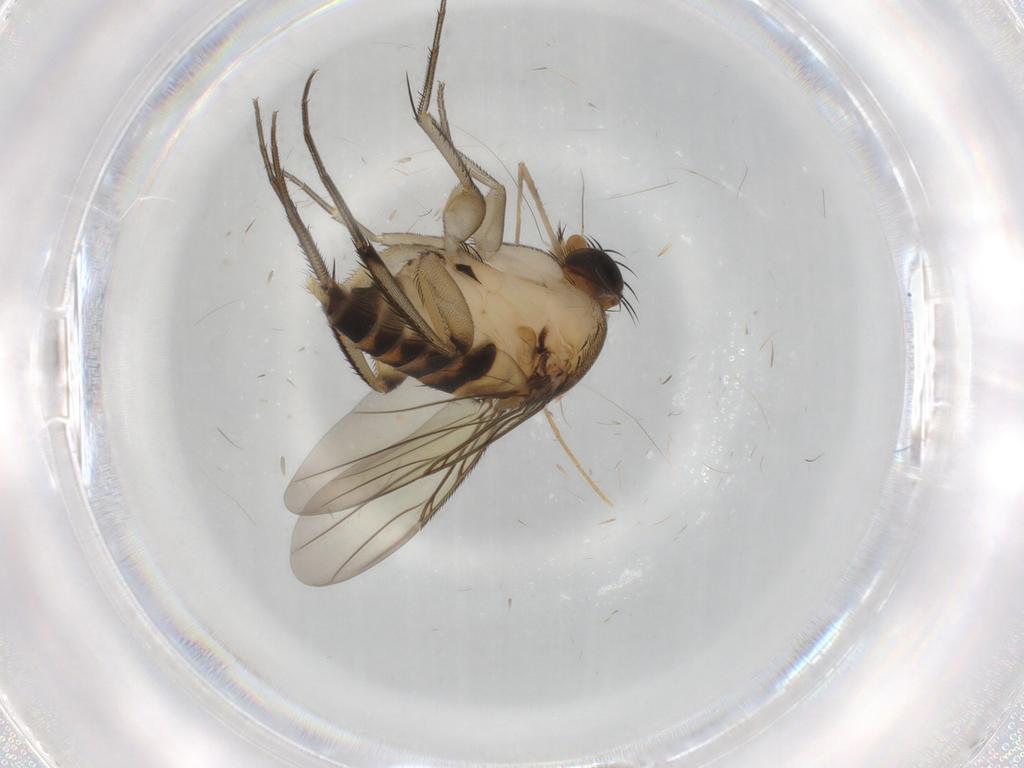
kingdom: Animalia
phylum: Arthropoda
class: Insecta
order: Diptera
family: Phoridae
